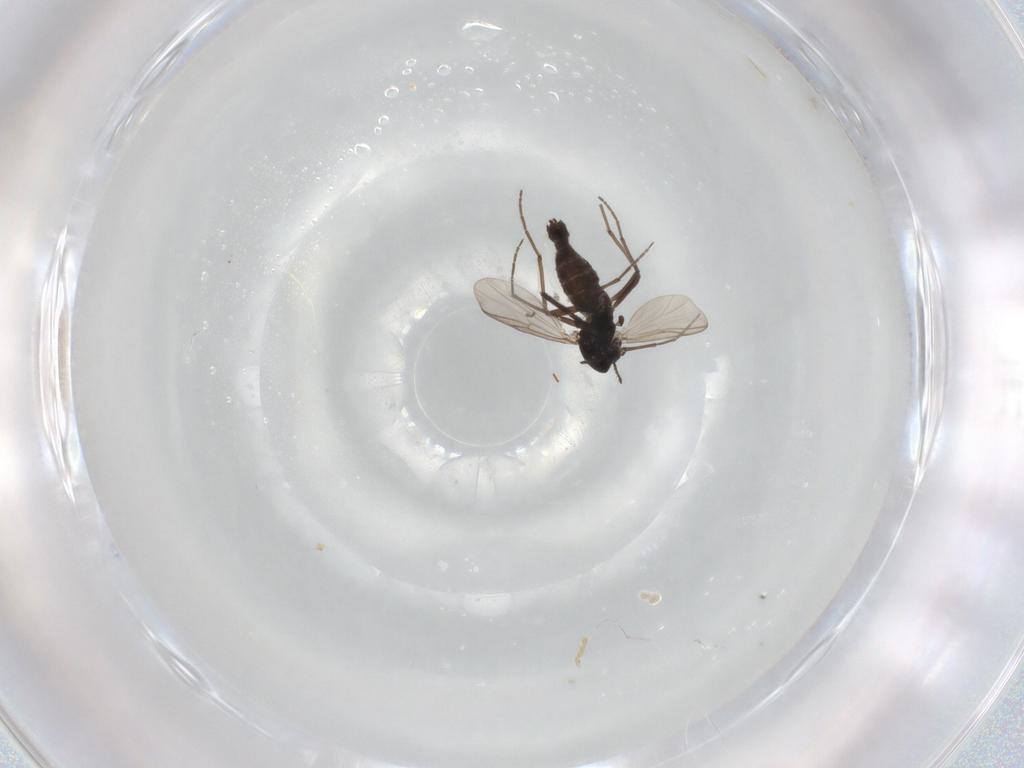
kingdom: Animalia
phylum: Arthropoda
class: Insecta
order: Diptera
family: Chironomidae
